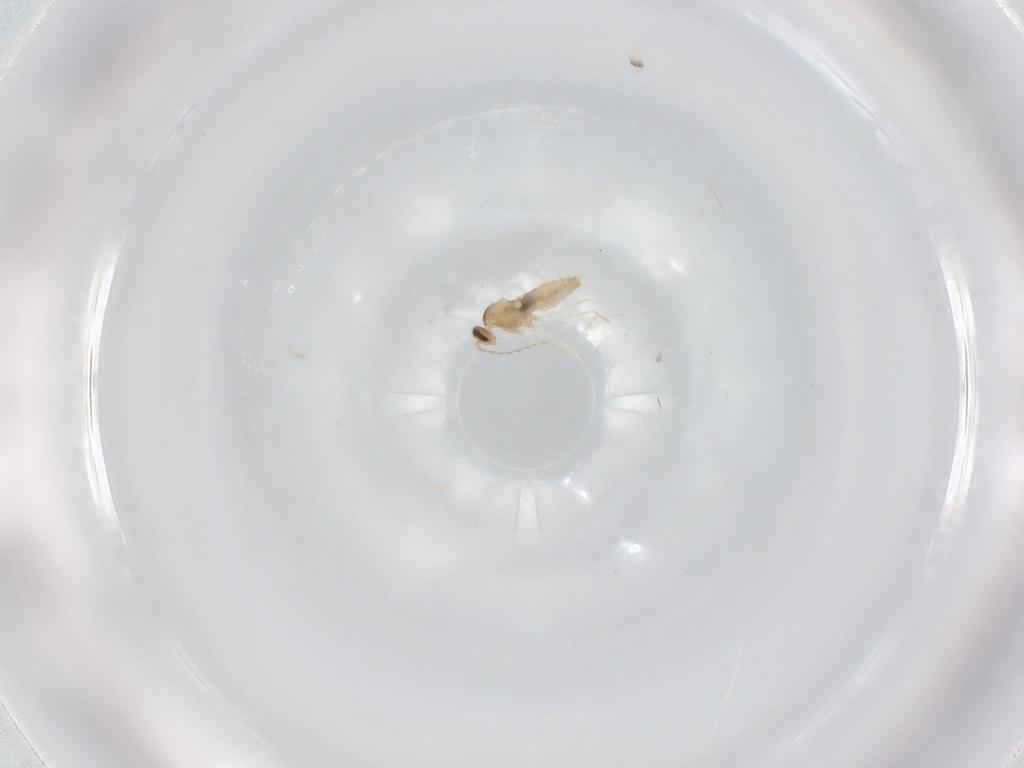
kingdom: Animalia
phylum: Arthropoda
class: Insecta
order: Diptera
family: Cecidomyiidae
